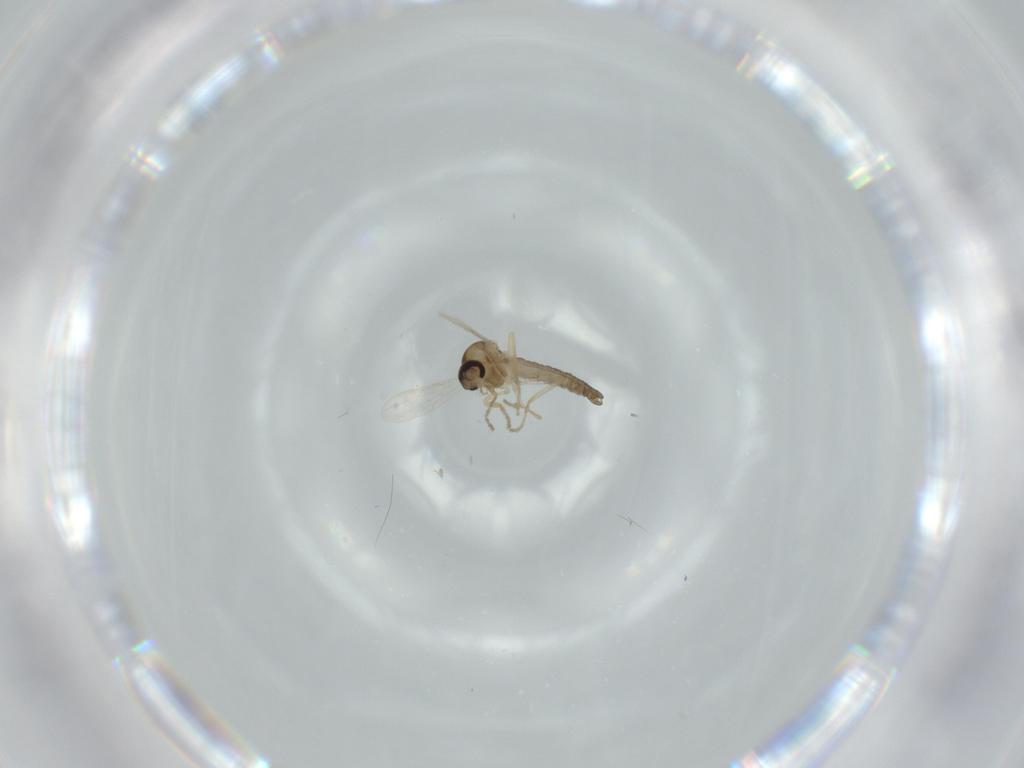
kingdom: Animalia
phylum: Arthropoda
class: Insecta
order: Diptera
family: Ceratopogonidae
